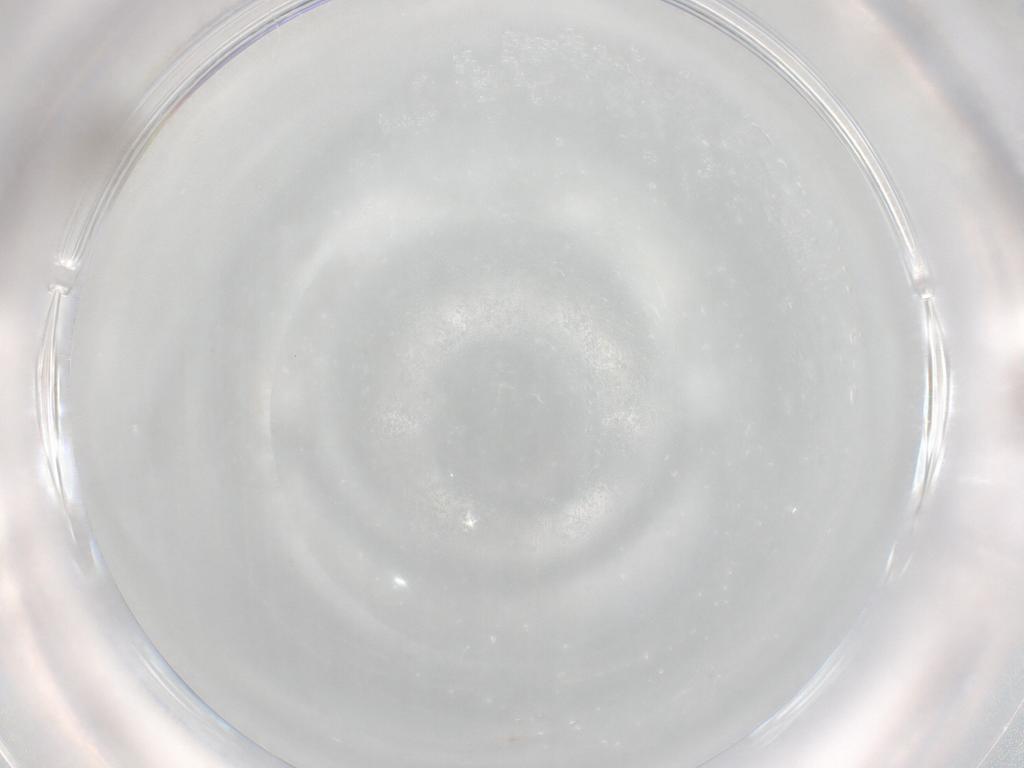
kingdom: Animalia
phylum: Arthropoda
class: Insecta
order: Diptera
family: Cecidomyiidae
